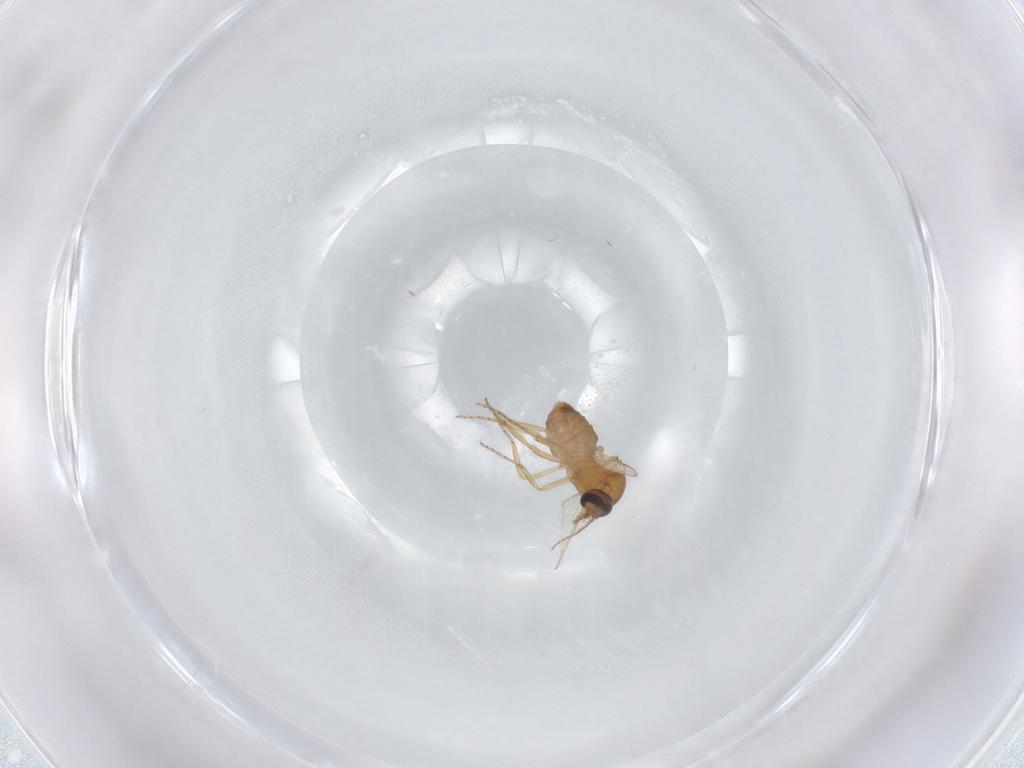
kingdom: Animalia
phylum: Arthropoda
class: Insecta
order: Diptera
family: Ceratopogonidae
